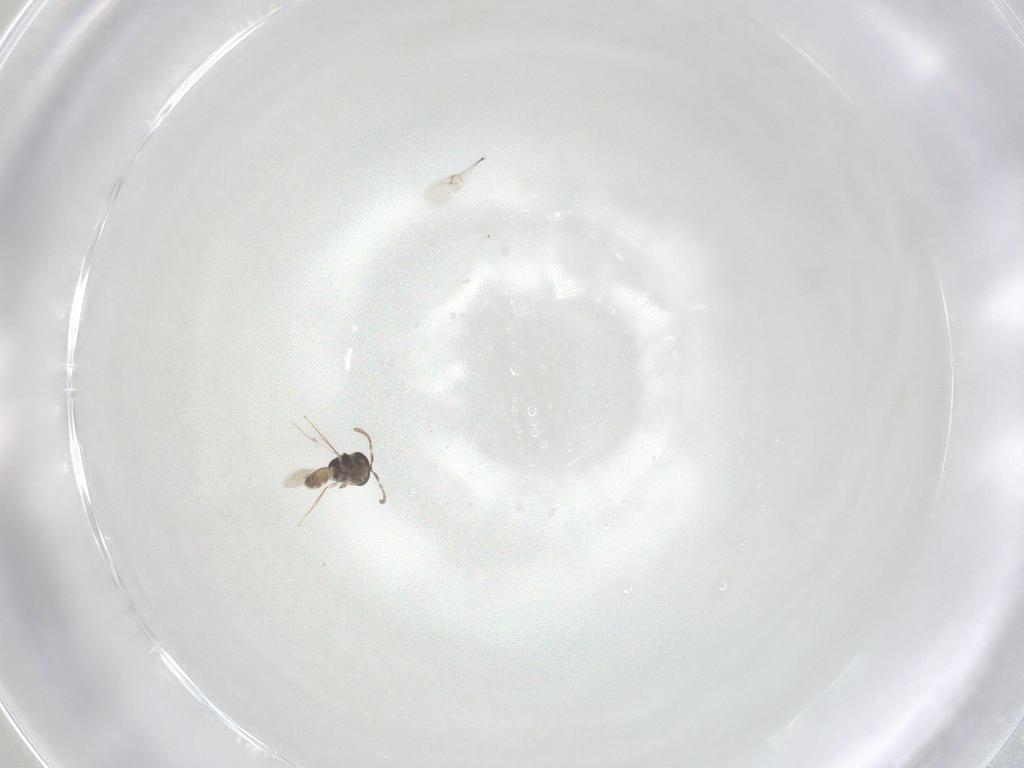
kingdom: Animalia
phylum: Arthropoda
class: Insecta
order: Hymenoptera
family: Scelionidae
